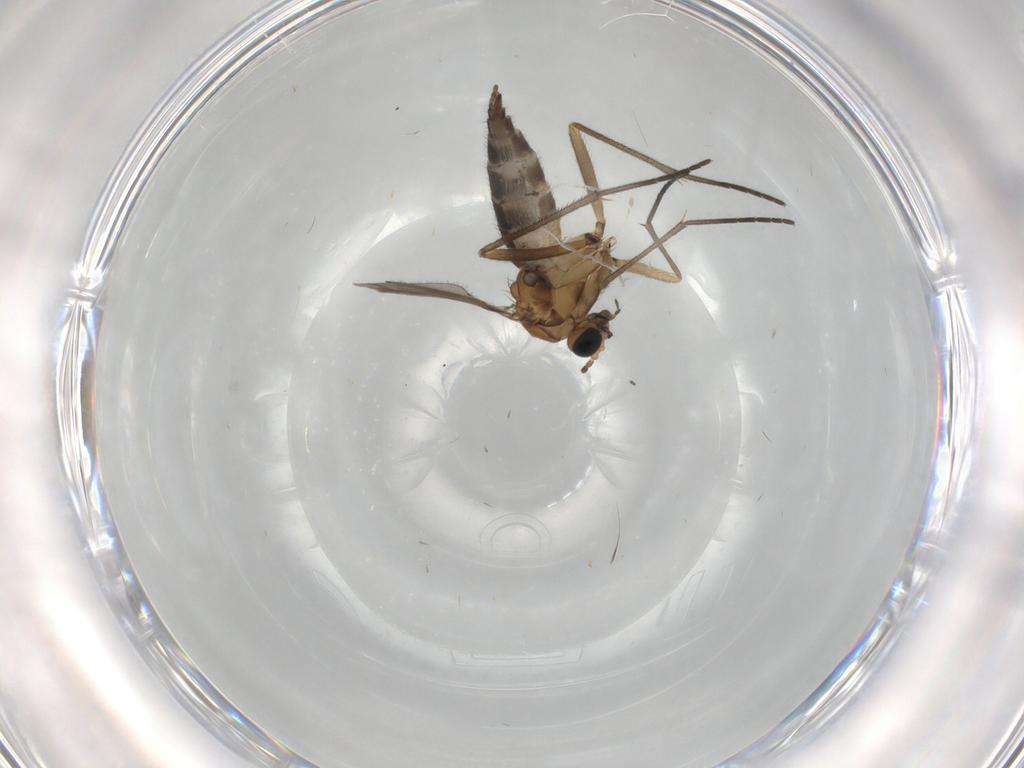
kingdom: Animalia
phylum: Arthropoda
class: Insecta
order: Diptera
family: Sciaridae
